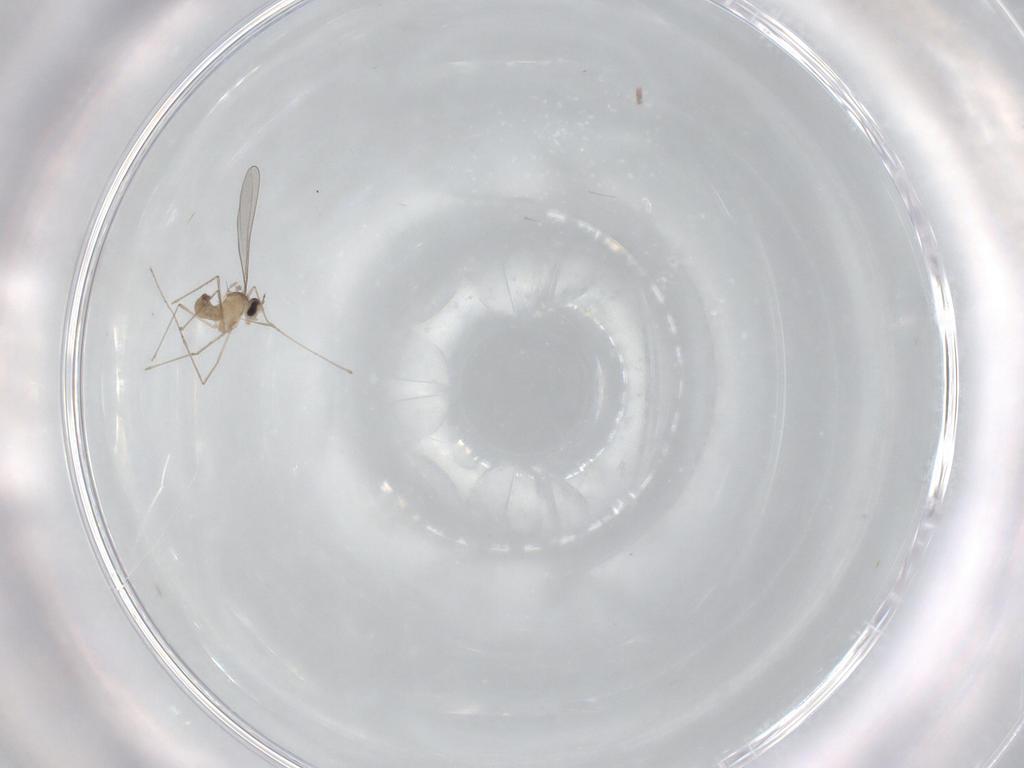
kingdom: Animalia
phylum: Arthropoda
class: Insecta
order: Diptera
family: Cecidomyiidae
